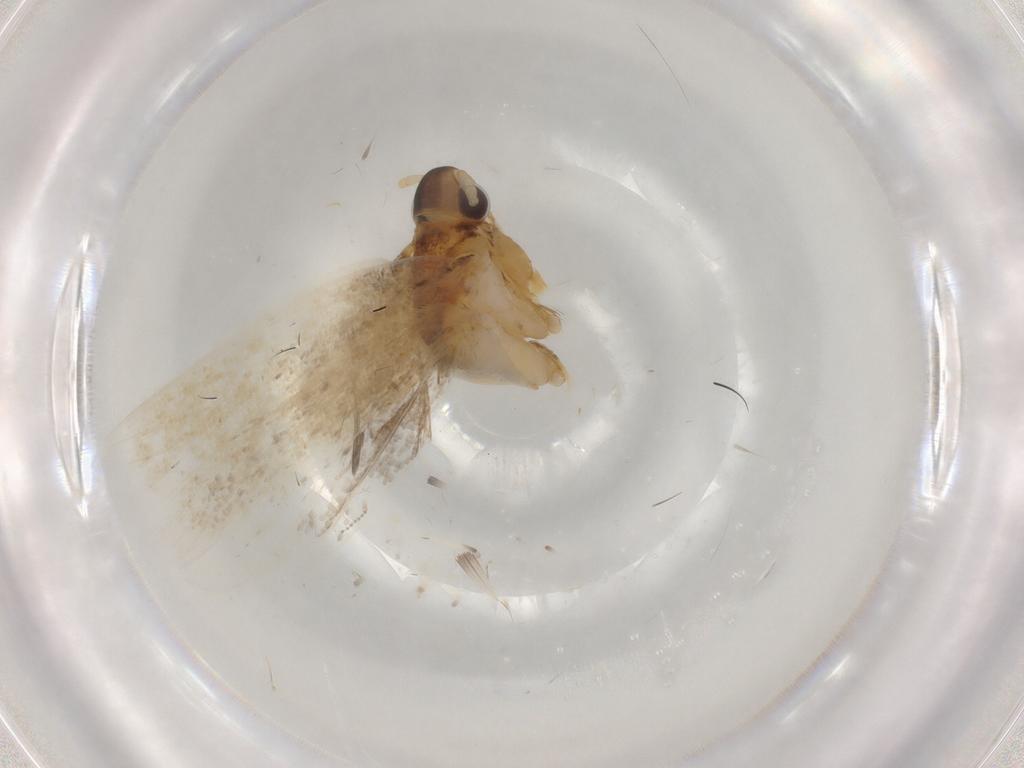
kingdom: Animalia
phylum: Arthropoda
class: Insecta
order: Lepidoptera
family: Lecithoceridae
